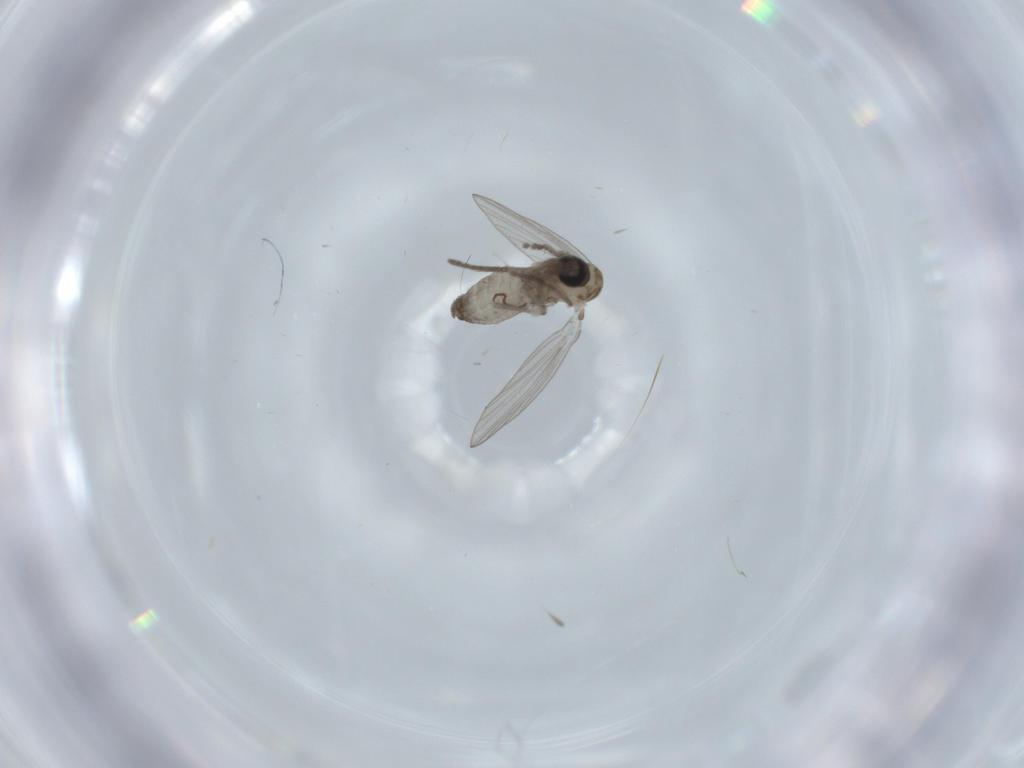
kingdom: Animalia
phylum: Arthropoda
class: Insecta
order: Diptera
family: Psychodidae
